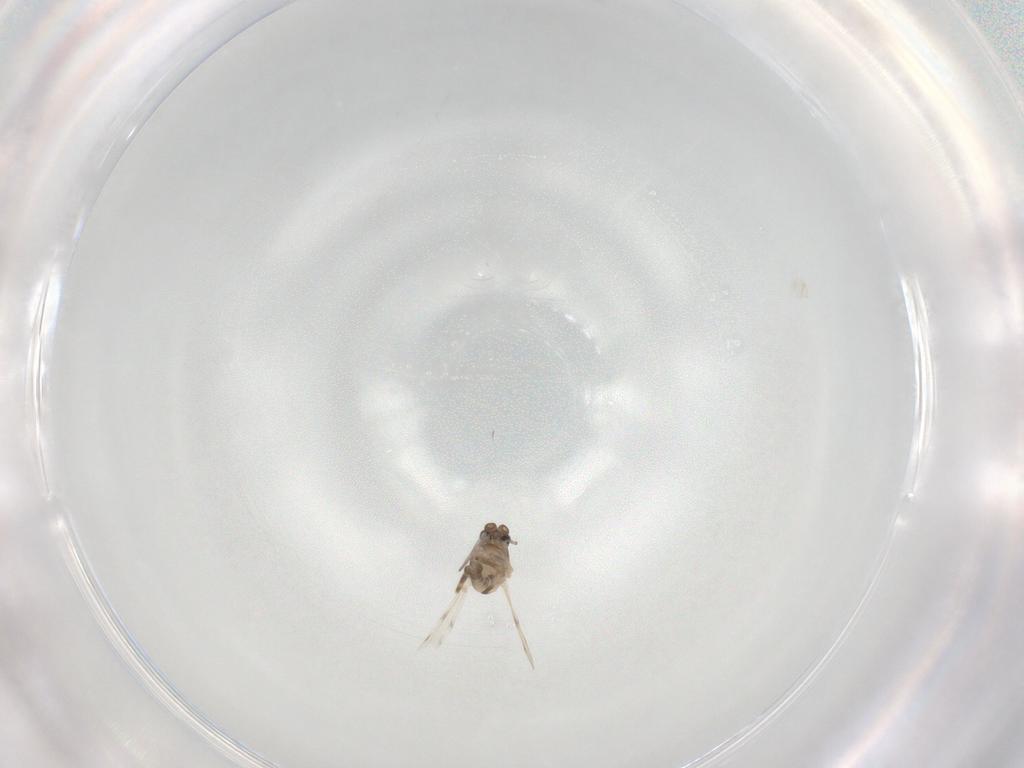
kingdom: Animalia
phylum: Arthropoda
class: Insecta
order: Diptera
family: Ceratopogonidae
